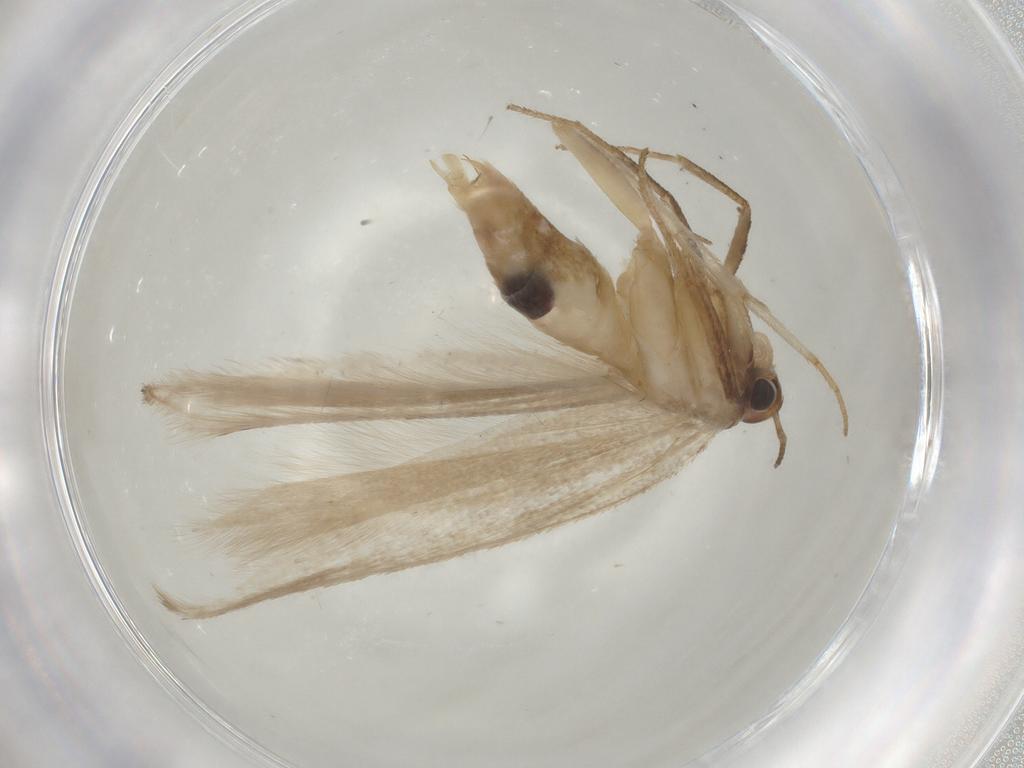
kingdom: Animalia
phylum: Arthropoda
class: Insecta
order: Lepidoptera
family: Gelechiidae
